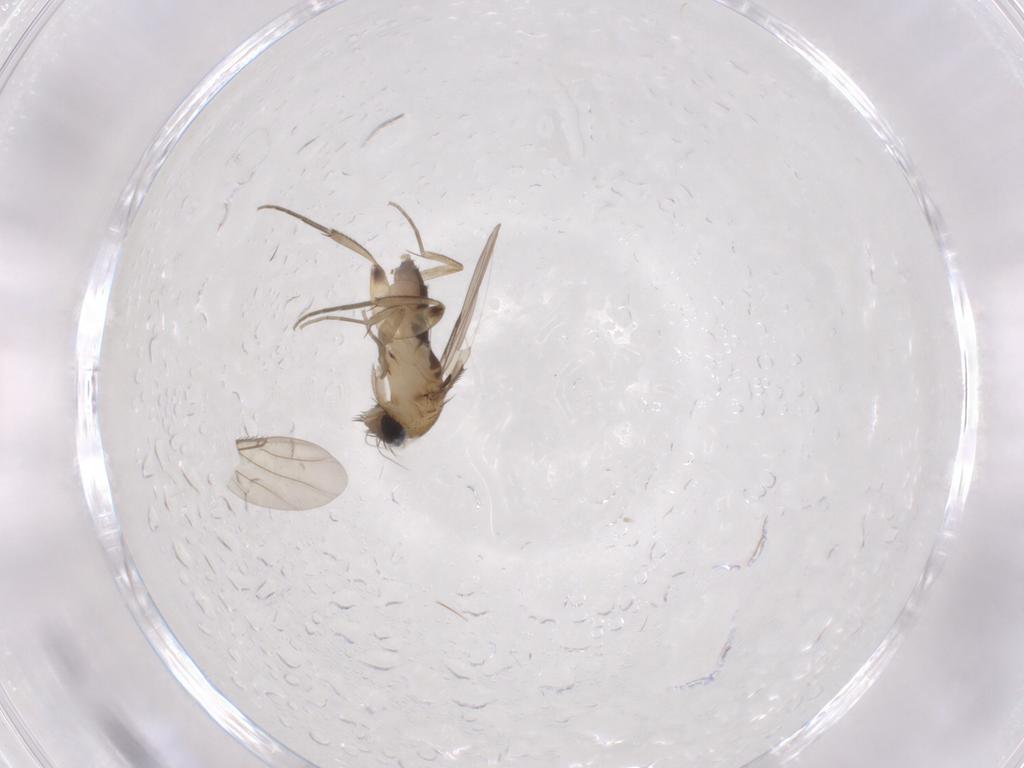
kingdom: Animalia
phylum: Arthropoda
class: Insecta
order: Diptera
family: Phoridae
